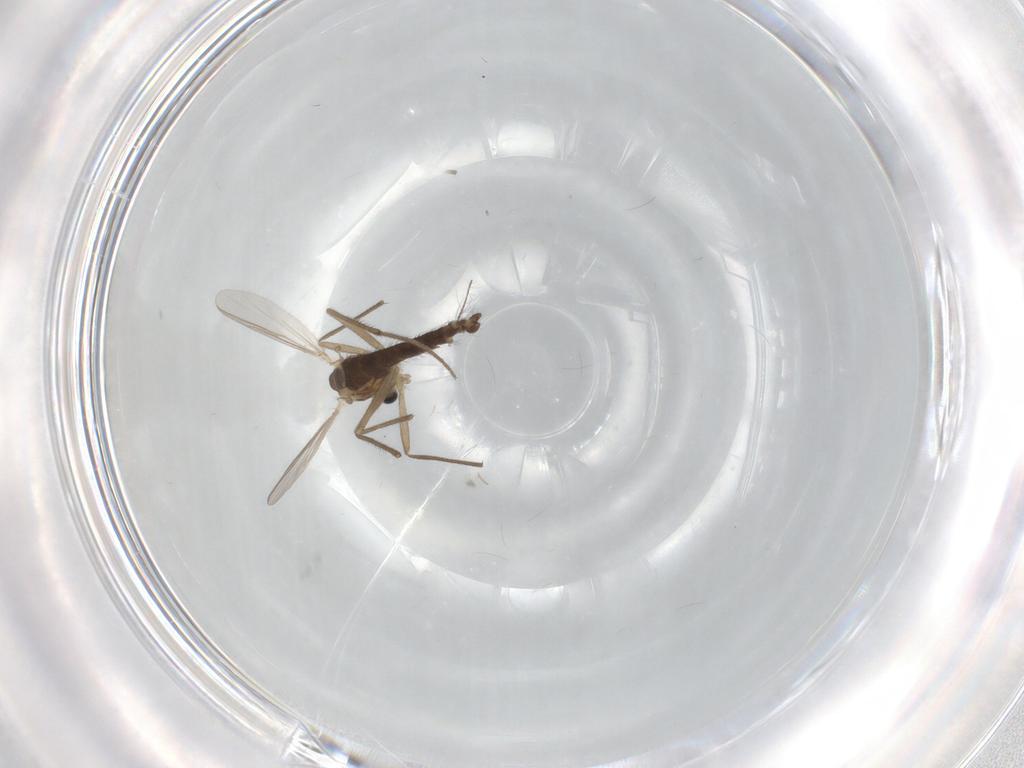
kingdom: Animalia
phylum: Arthropoda
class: Insecta
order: Diptera
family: Chironomidae
